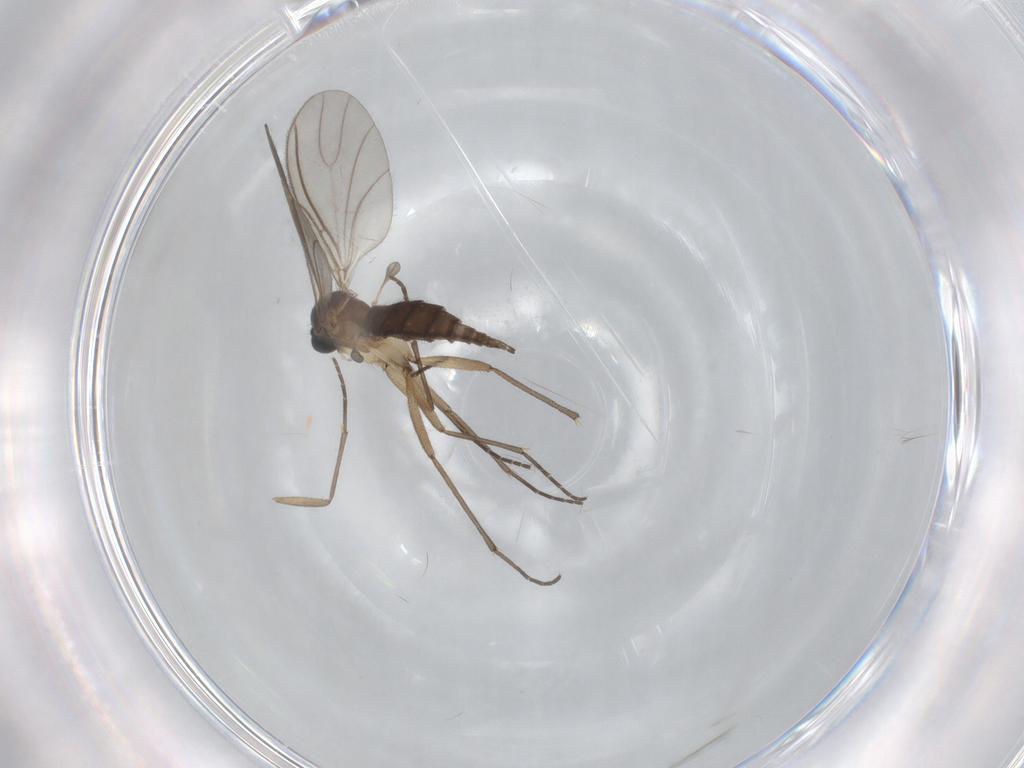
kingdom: Animalia
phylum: Arthropoda
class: Insecta
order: Diptera
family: Sciaridae
